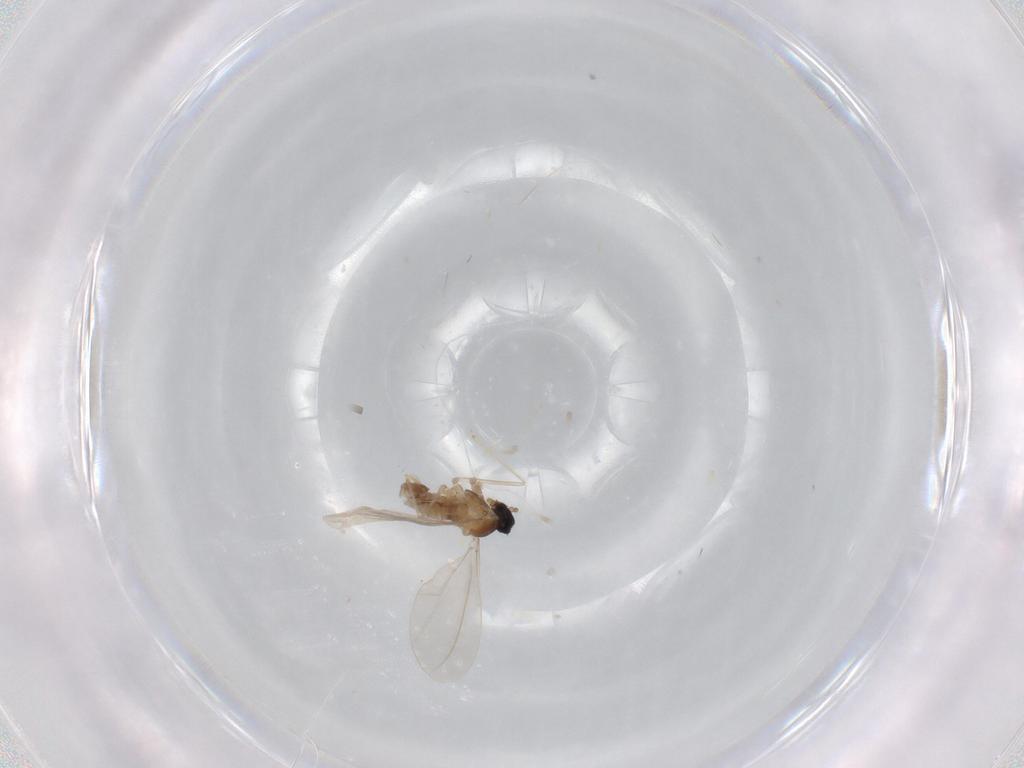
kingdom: Animalia
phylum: Arthropoda
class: Insecta
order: Diptera
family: Cecidomyiidae
